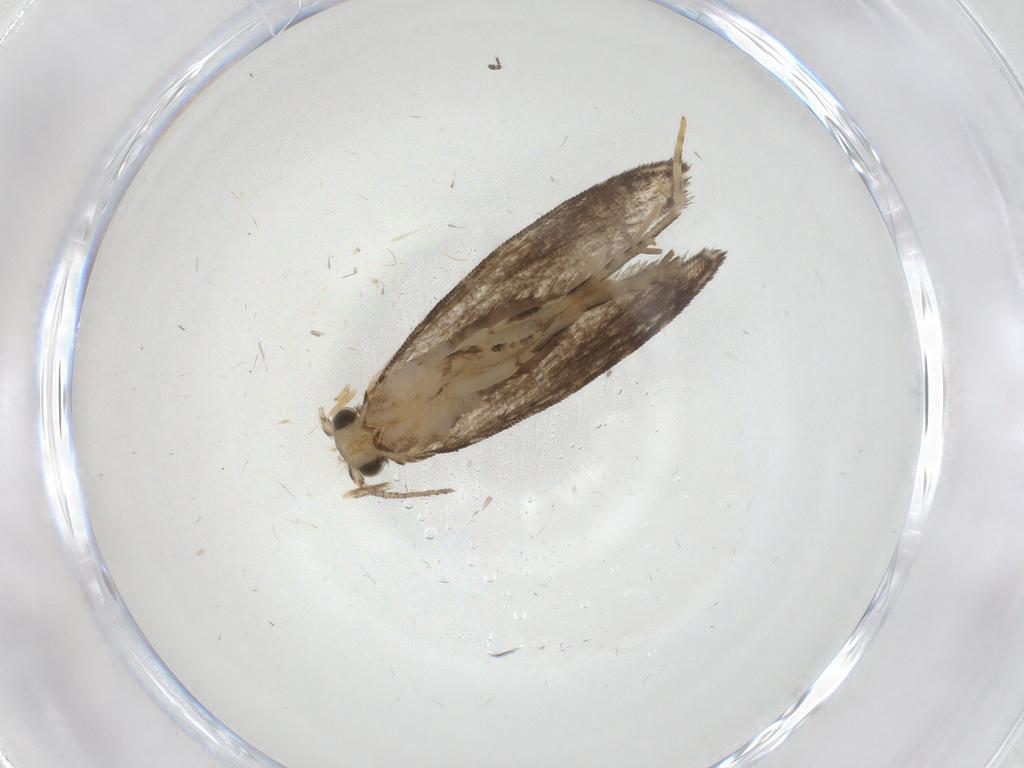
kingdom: Animalia
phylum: Arthropoda
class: Insecta
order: Lepidoptera
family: Tineidae
